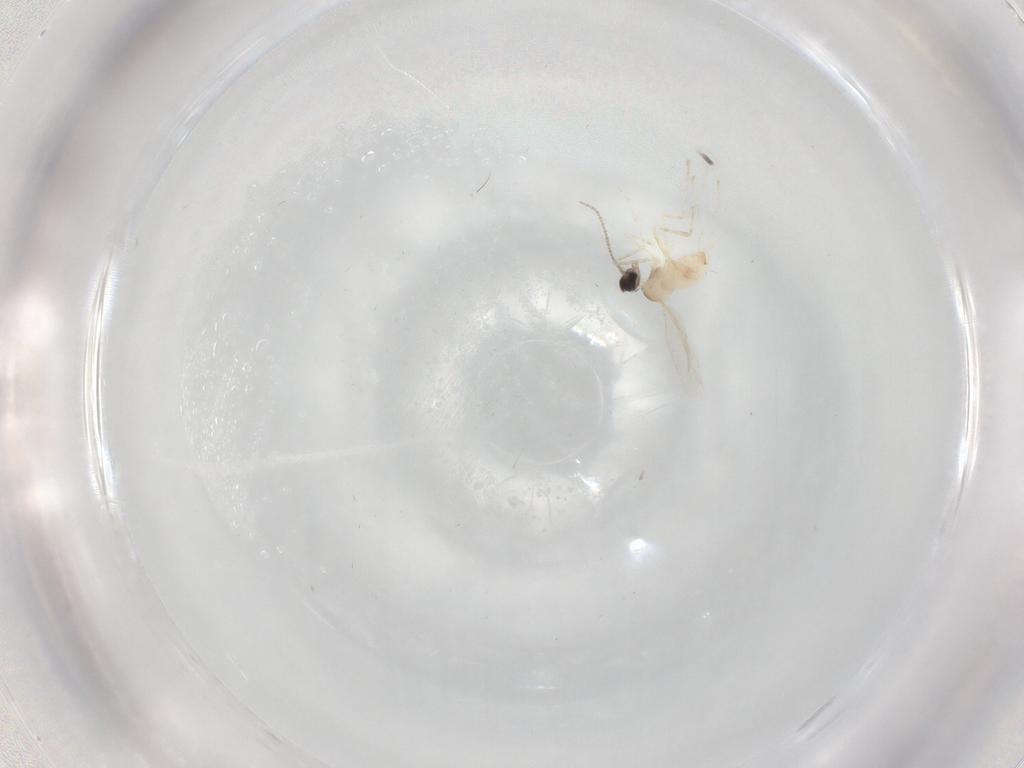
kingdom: Animalia
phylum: Arthropoda
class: Insecta
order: Diptera
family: Cecidomyiidae
